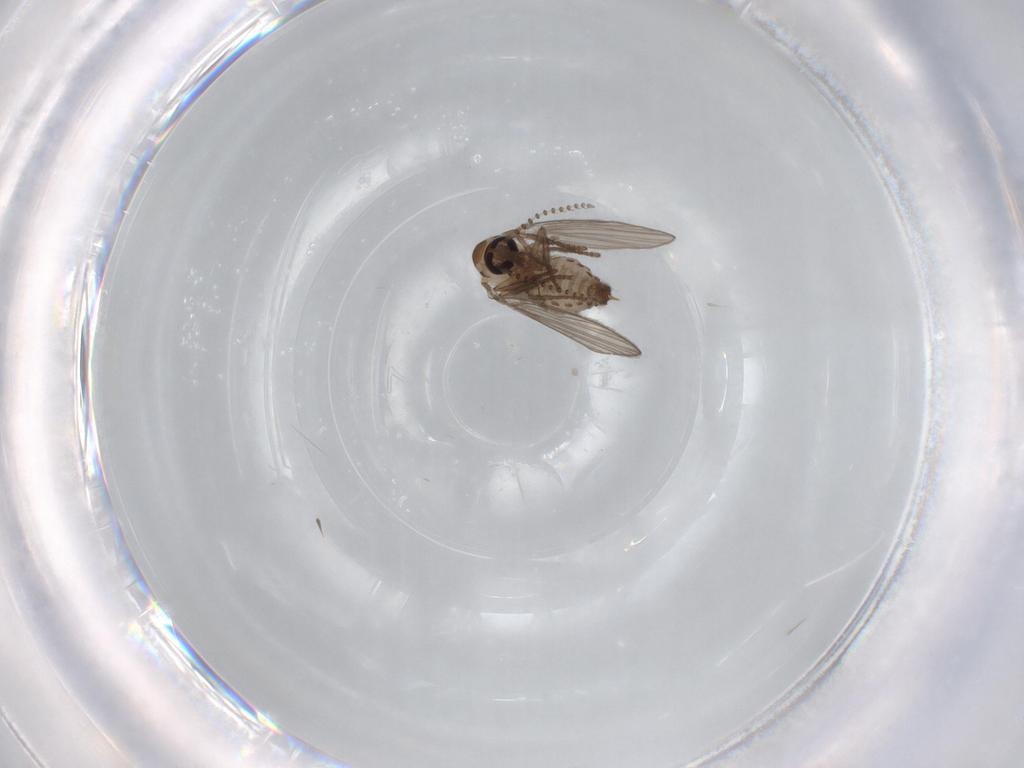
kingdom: Animalia
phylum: Arthropoda
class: Insecta
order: Diptera
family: Psychodidae
